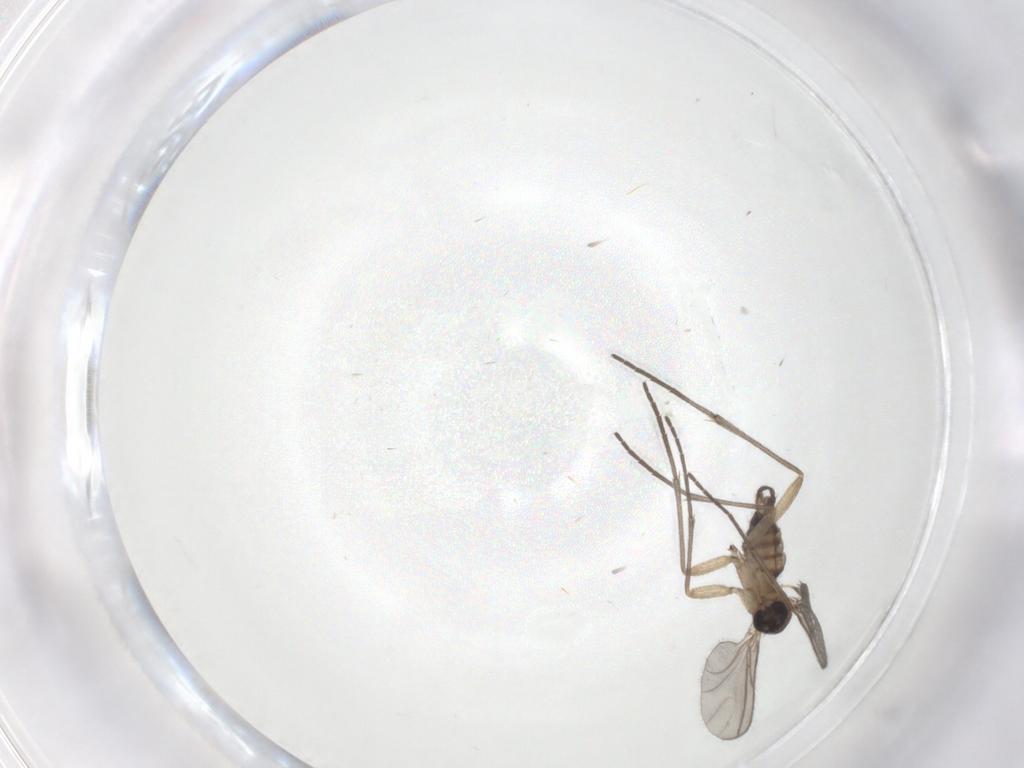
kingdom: Animalia
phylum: Arthropoda
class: Insecta
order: Diptera
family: Sciaridae
